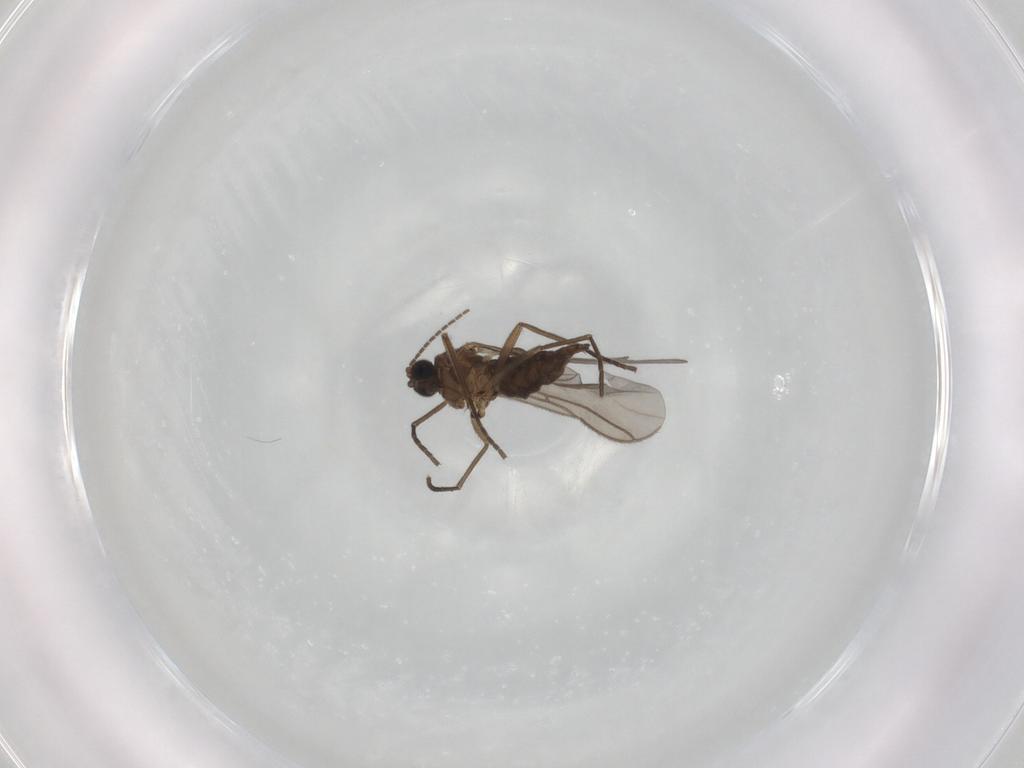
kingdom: Animalia
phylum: Arthropoda
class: Insecta
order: Diptera
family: Sciaridae
